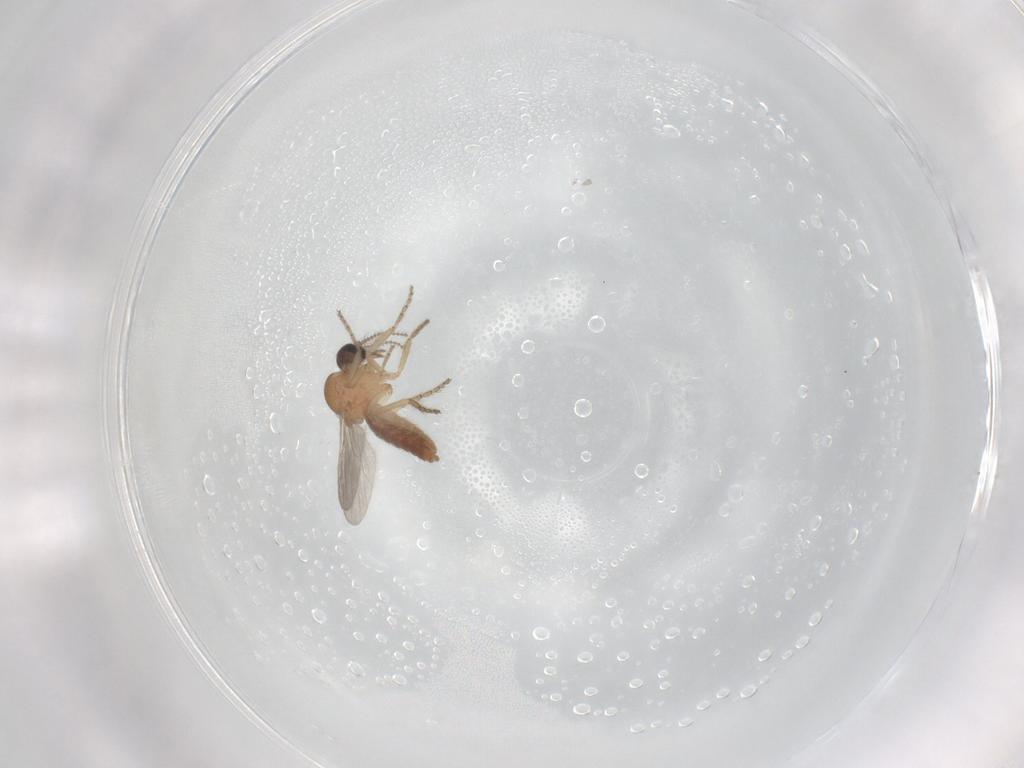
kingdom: Animalia
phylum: Arthropoda
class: Insecta
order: Diptera
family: Ceratopogonidae
